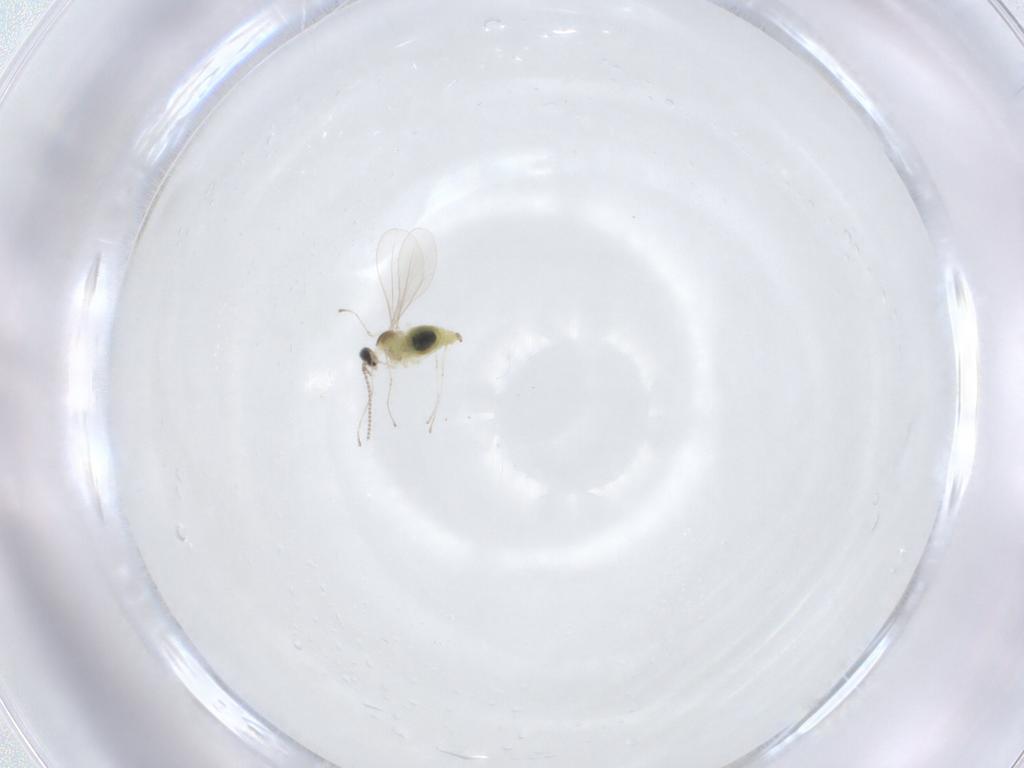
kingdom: Animalia
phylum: Arthropoda
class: Insecta
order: Diptera
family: Cecidomyiidae
